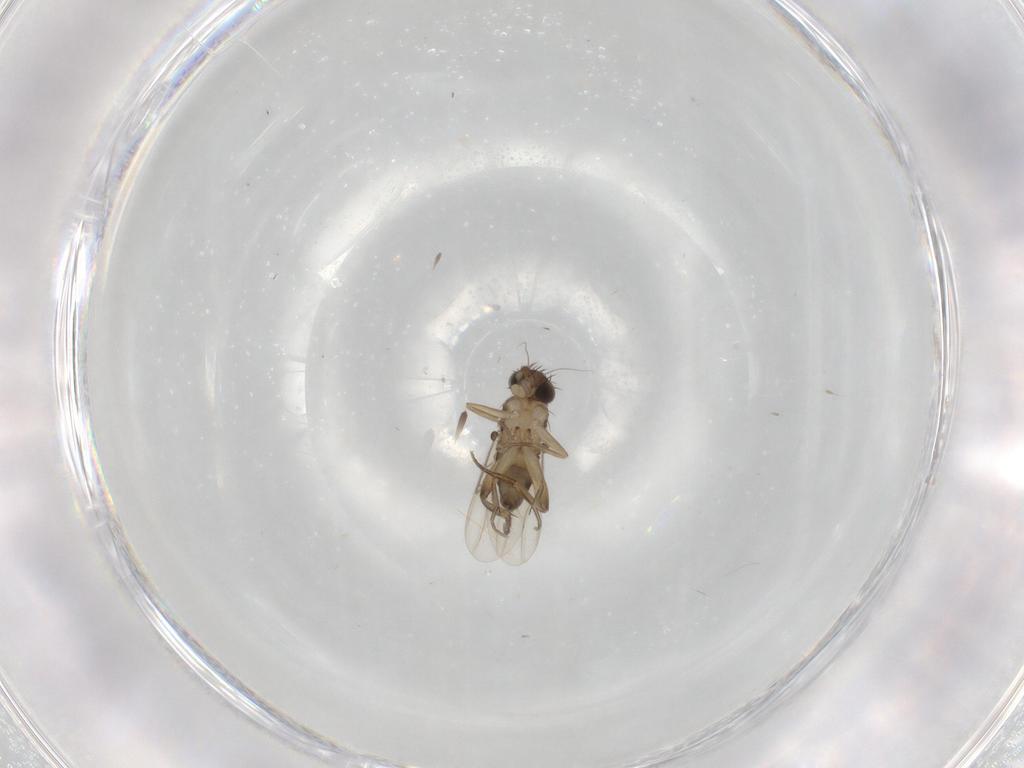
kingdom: Animalia
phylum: Arthropoda
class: Insecta
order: Diptera
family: Phoridae
